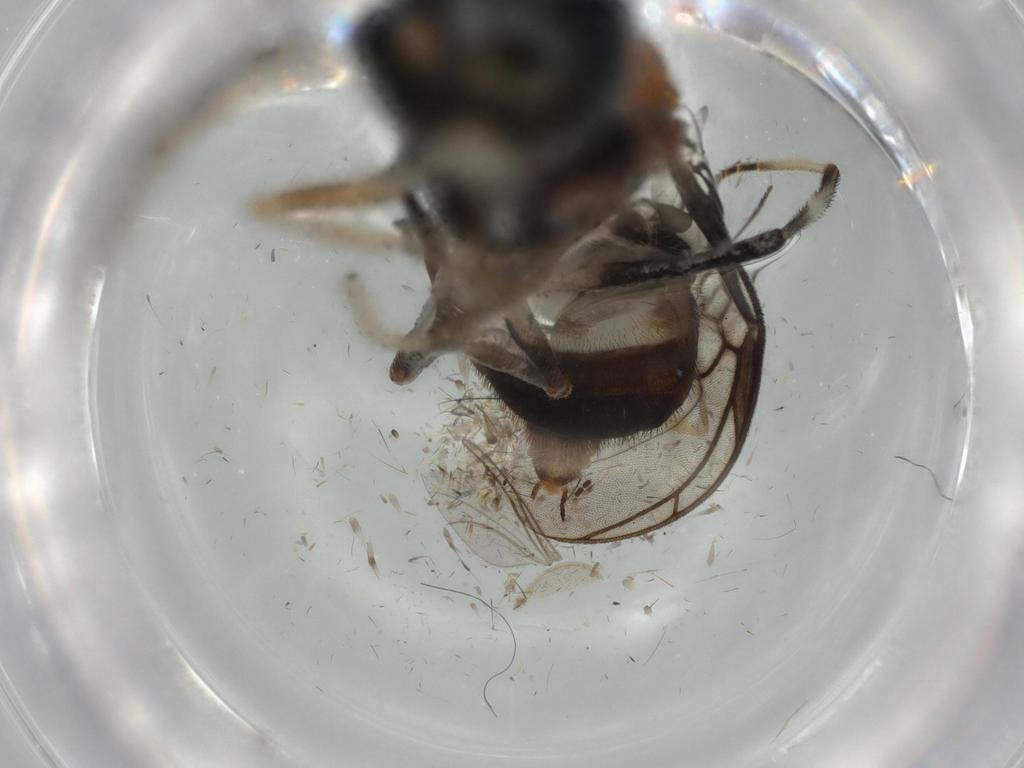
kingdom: Animalia
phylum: Arthropoda
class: Insecta
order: Diptera
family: Phoridae
